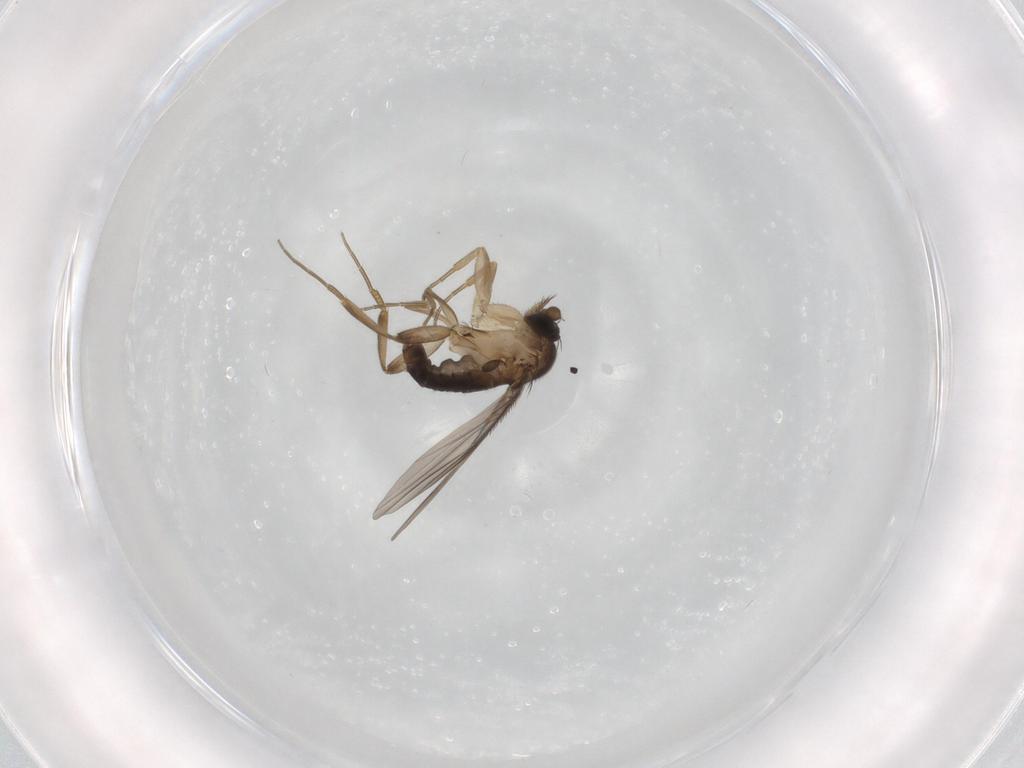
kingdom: Animalia
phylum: Arthropoda
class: Insecta
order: Diptera
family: Phoridae
